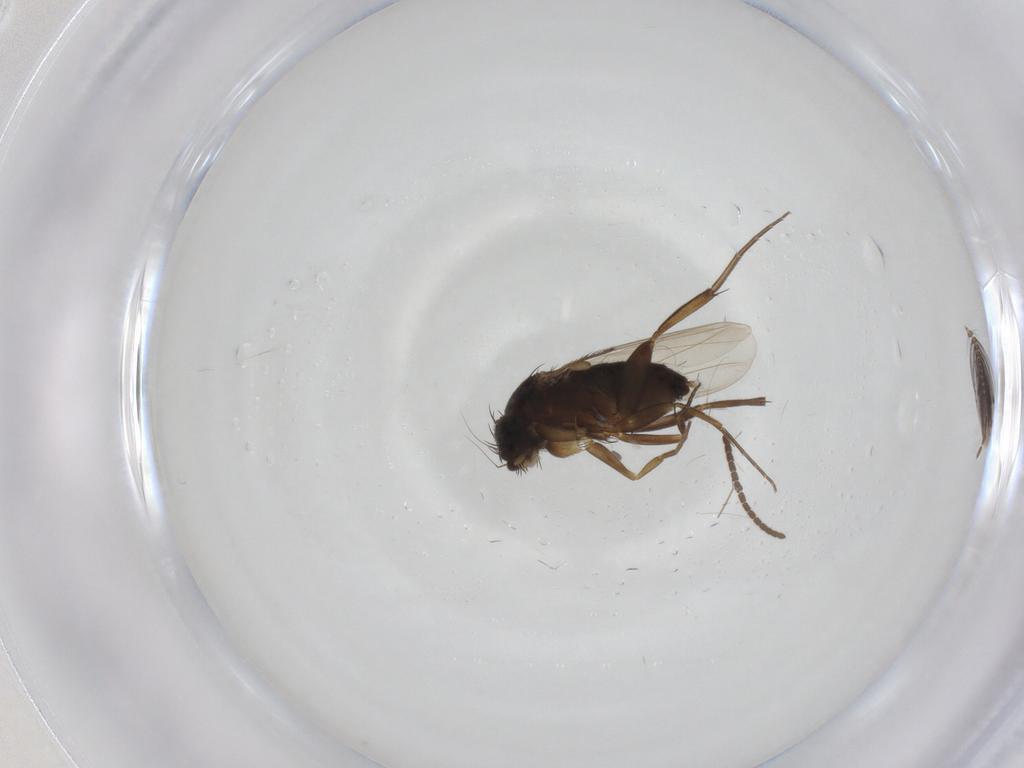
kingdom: Animalia
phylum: Arthropoda
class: Insecta
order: Diptera
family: Phoridae
